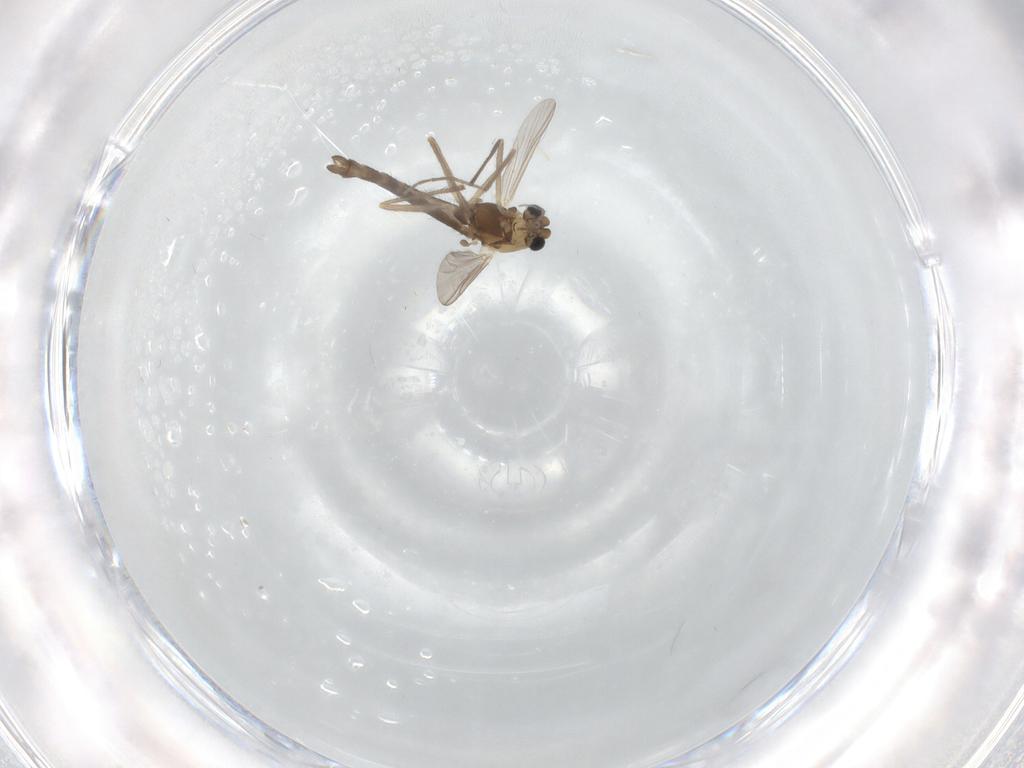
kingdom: Animalia
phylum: Arthropoda
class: Insecta
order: Diptera
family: Chironomidae
